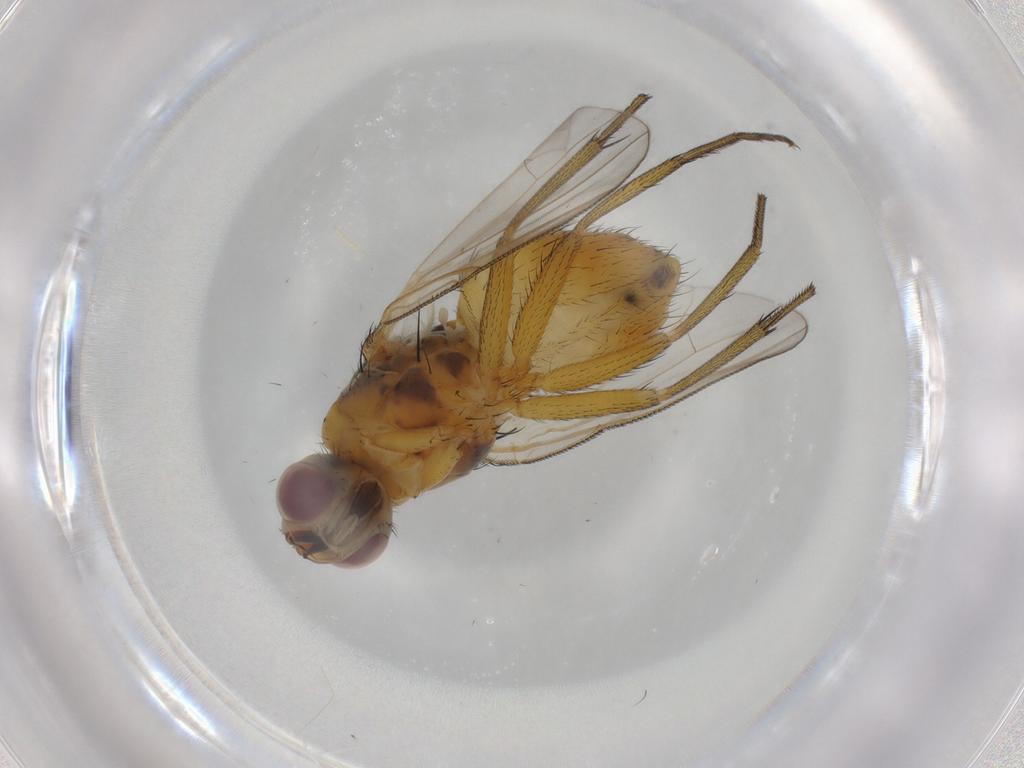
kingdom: Animalia
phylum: Arthropoda
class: Insecta
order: Diptera
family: Muscidae
